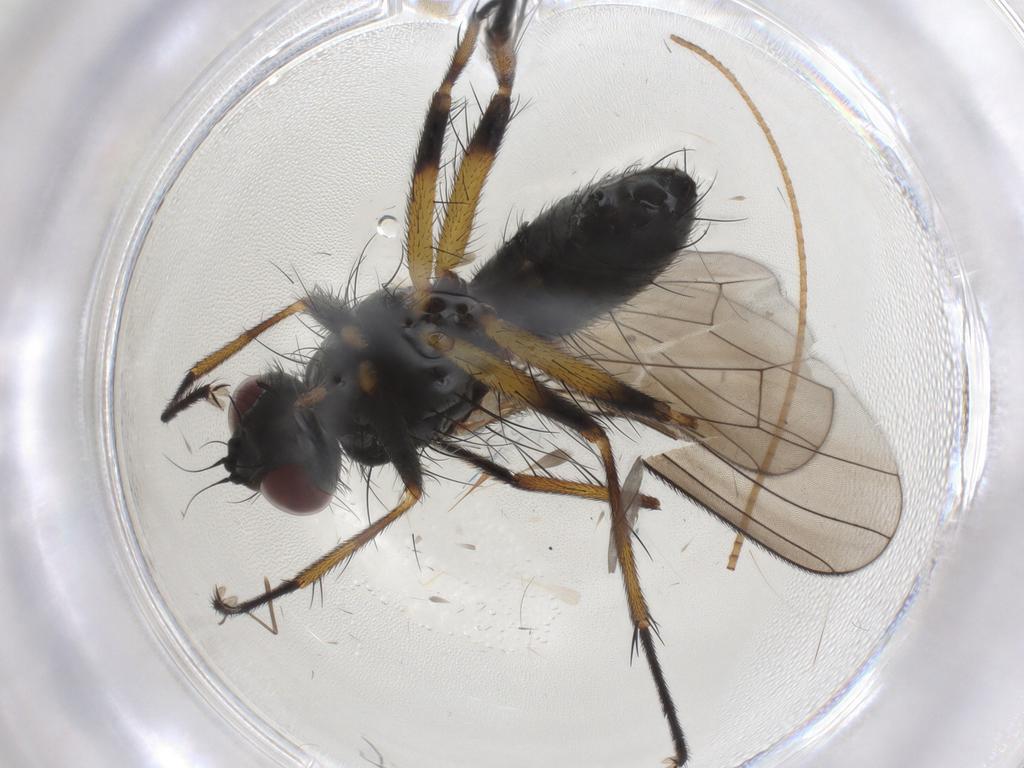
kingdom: Animalia
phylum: Arthropoda
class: Insecta
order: Diptera
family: Muscidae
